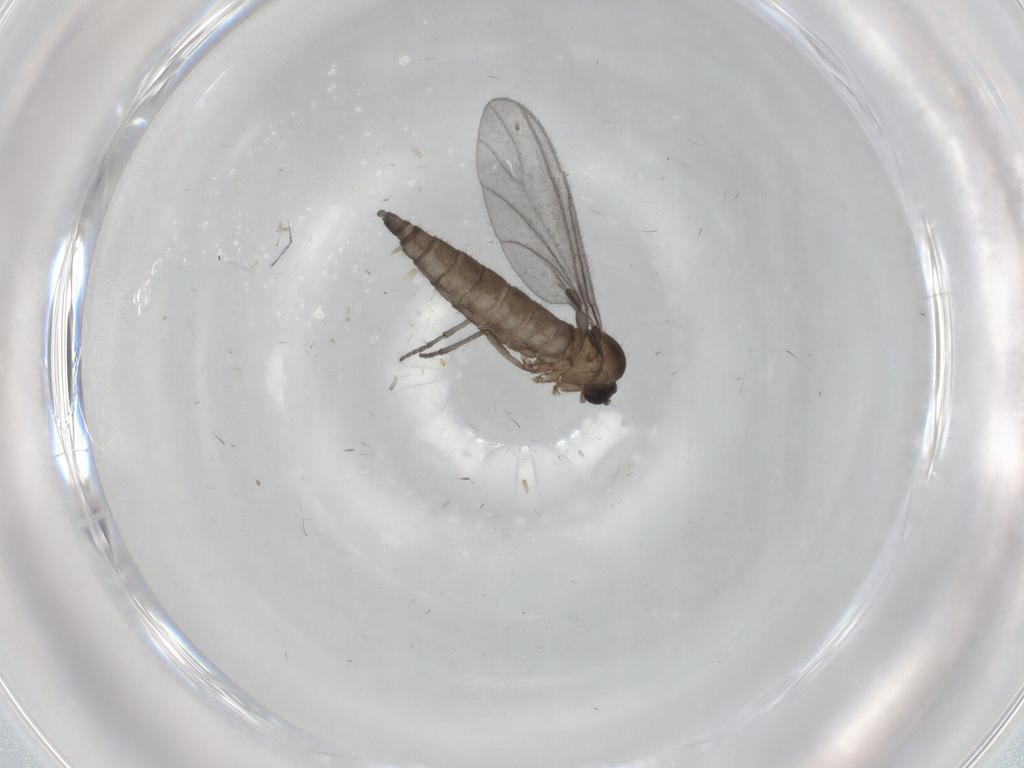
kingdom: Animalia
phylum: Arthropoda
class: Insecta
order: Diptera
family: Sciaridae
